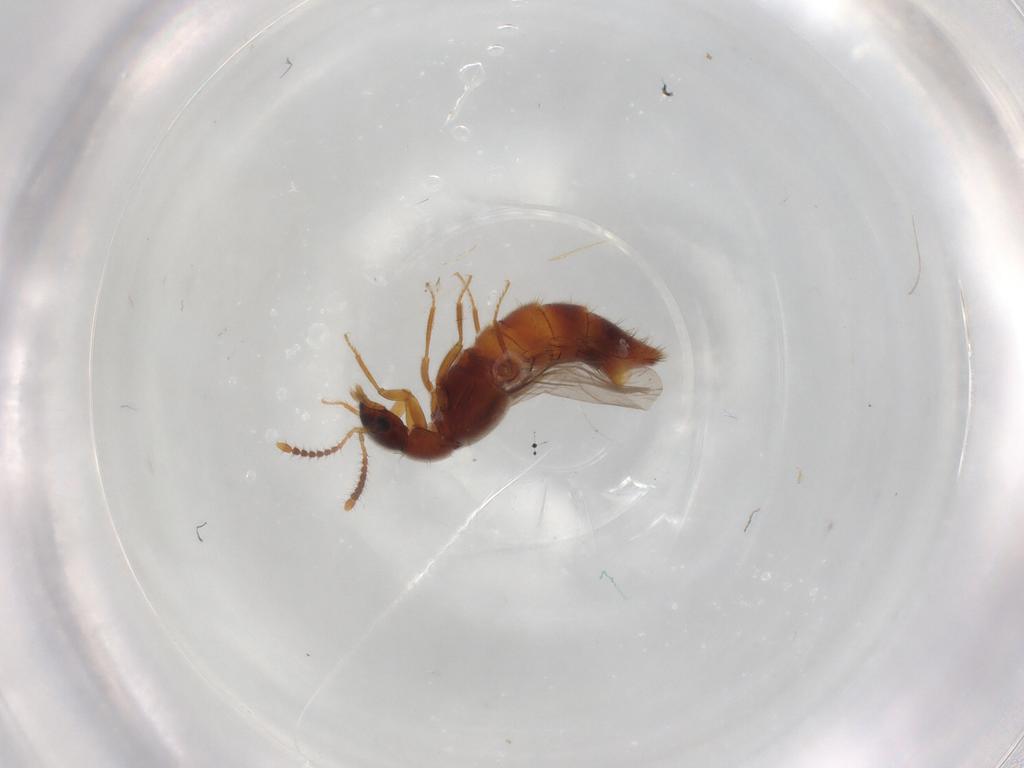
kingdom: Animalia
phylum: Arthropoda
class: Insecta
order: Coleoptera
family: Staphylinidae
